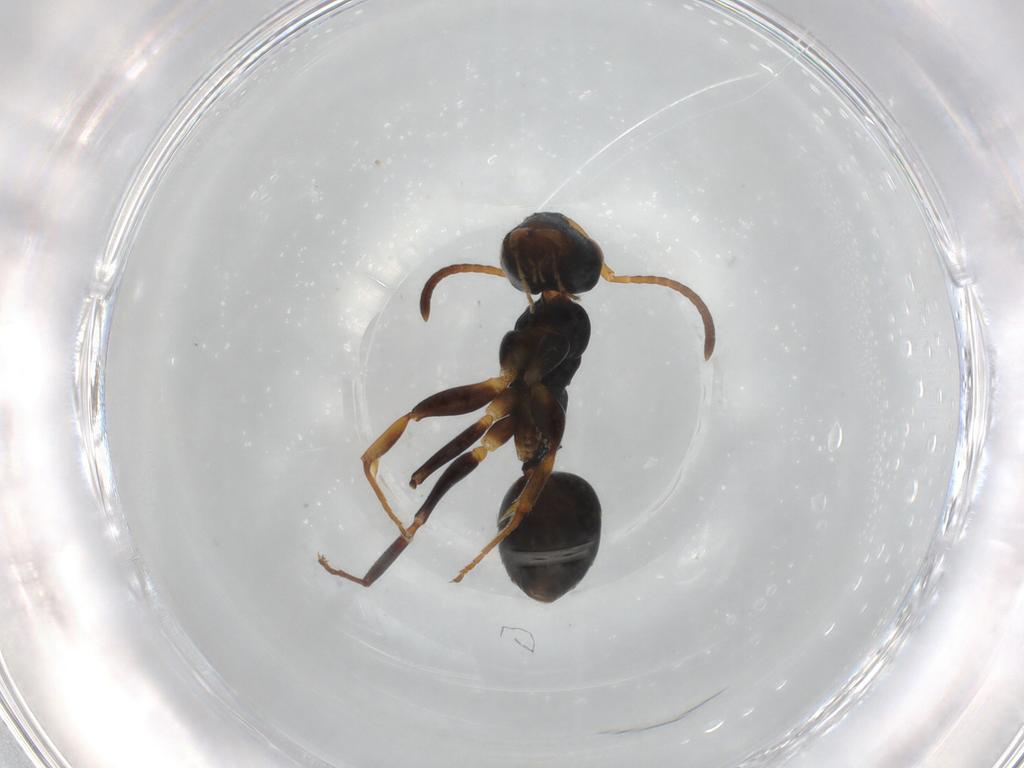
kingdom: Animalia
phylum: Arthropoda
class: Insecta
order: Hymenoptera
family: Formicidae
